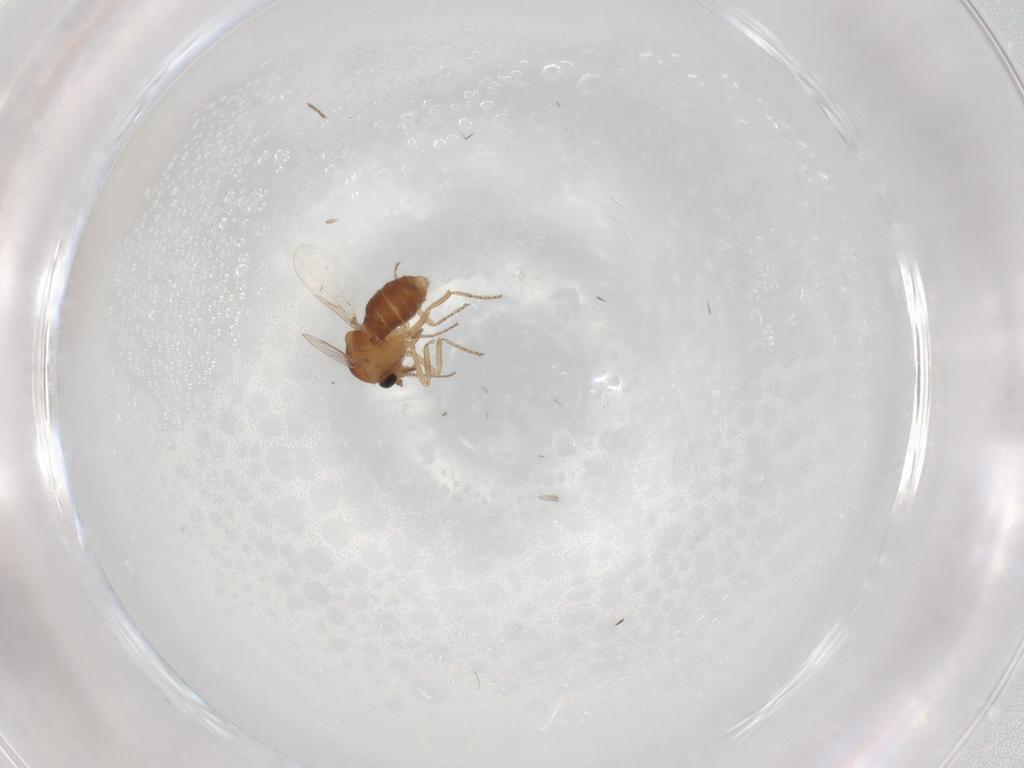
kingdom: Animalia
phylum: Arthropoda
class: Insecta
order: Diptera
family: Ceratopogonidae
